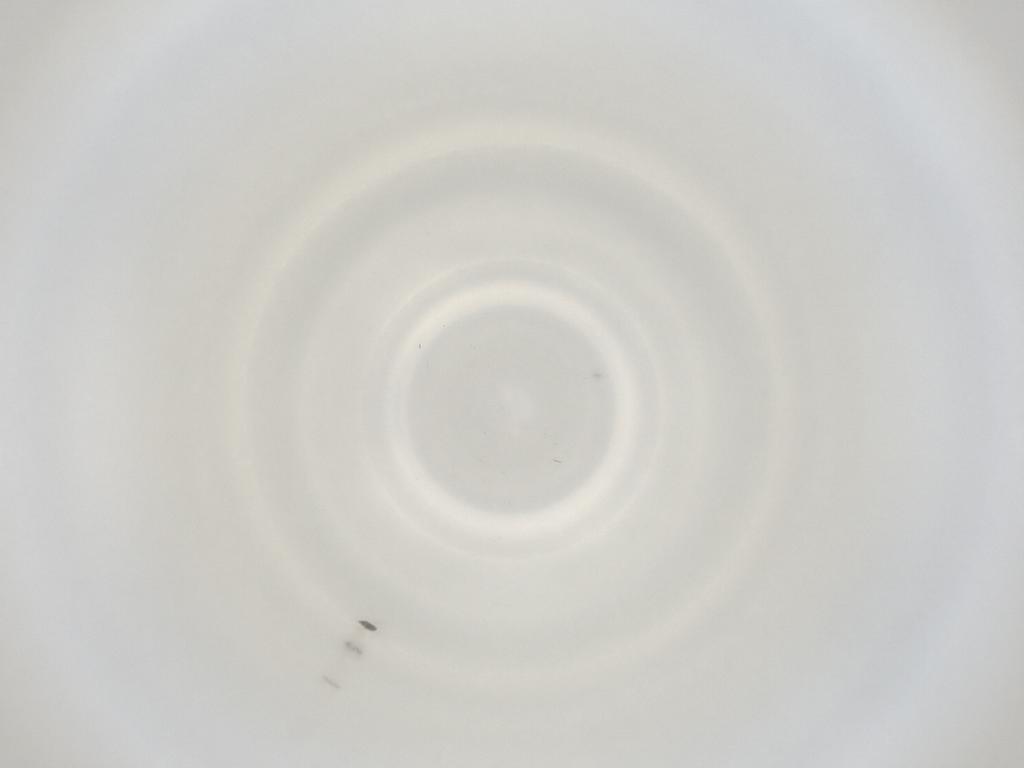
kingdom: Animalia
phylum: Arthropoda
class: Insecta
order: Diptera
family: Cecidomyiidae
